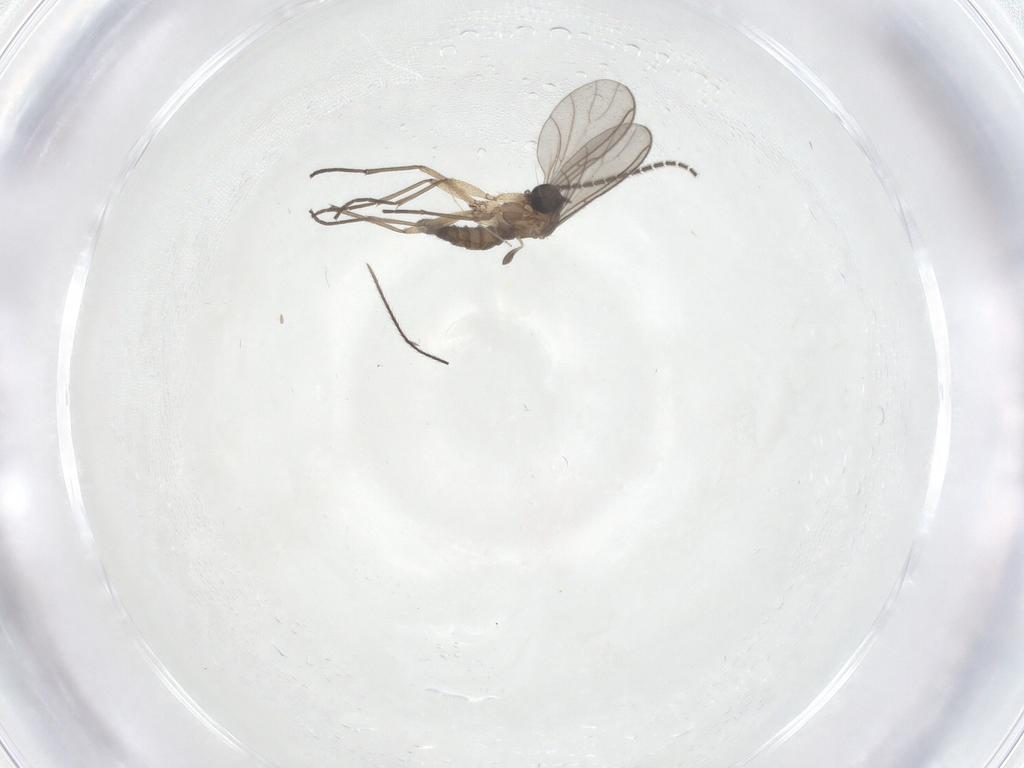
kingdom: Animalia
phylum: Arthropoda
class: Insecta
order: Diptera
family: Sciaridae
